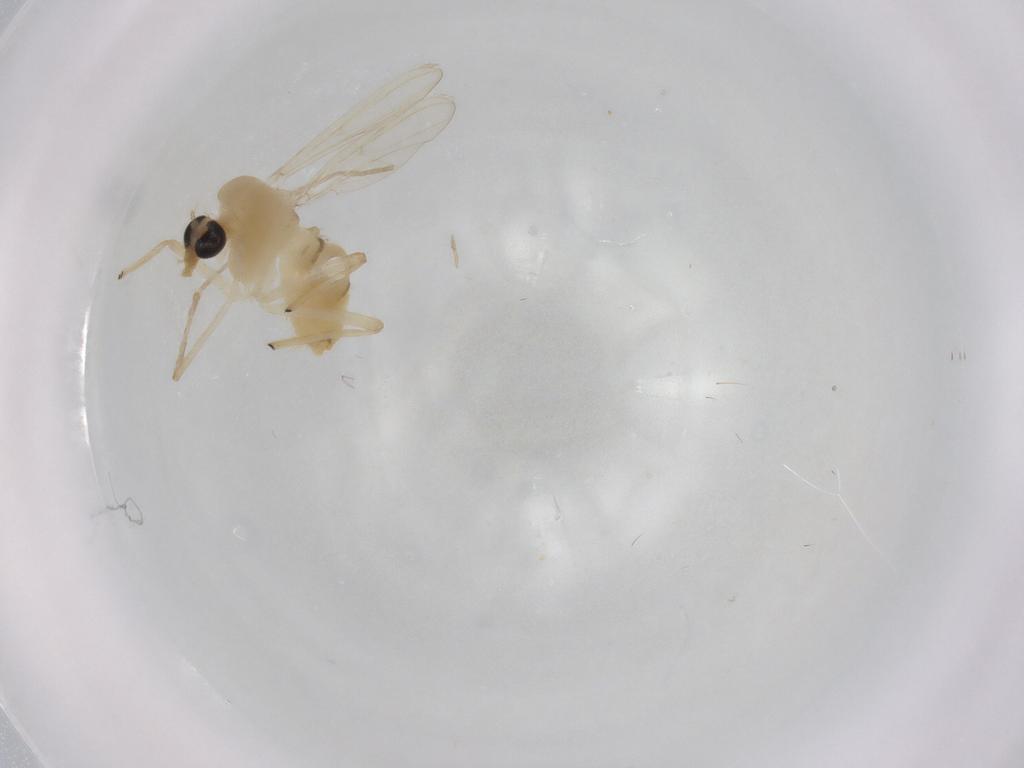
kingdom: Animalia
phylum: Arthropoda
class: Insecta
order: Diptera
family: Chironomidae
